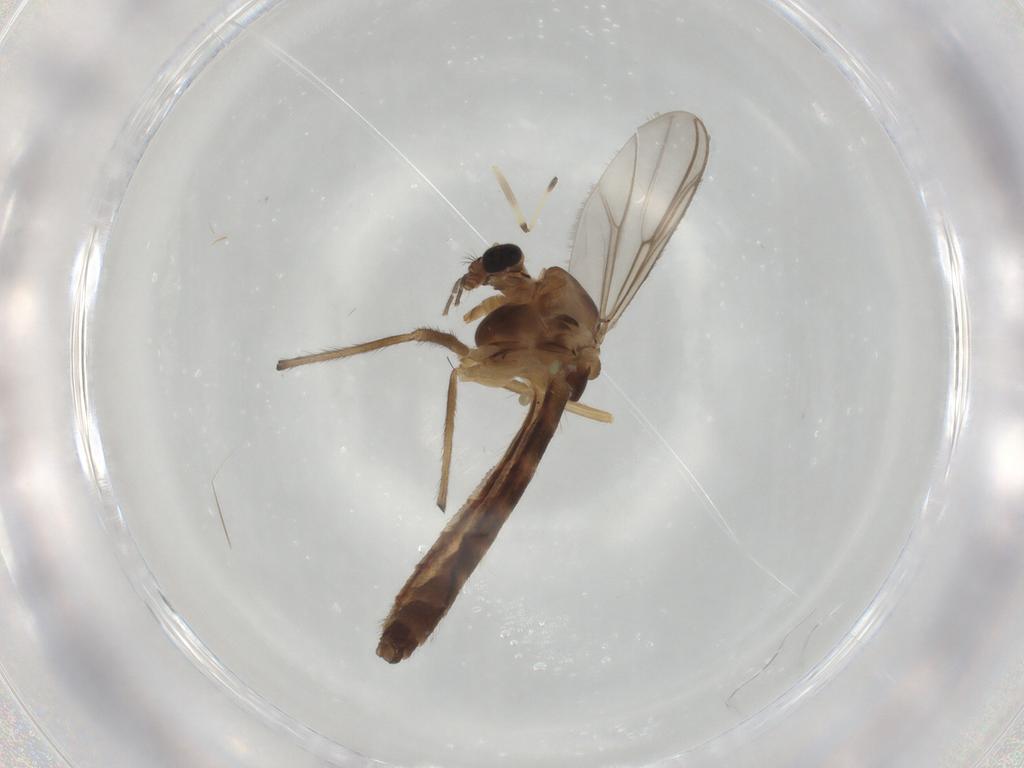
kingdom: Animalia
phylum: Arthropoda
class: Insecta
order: Diptera
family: Chironomidae
